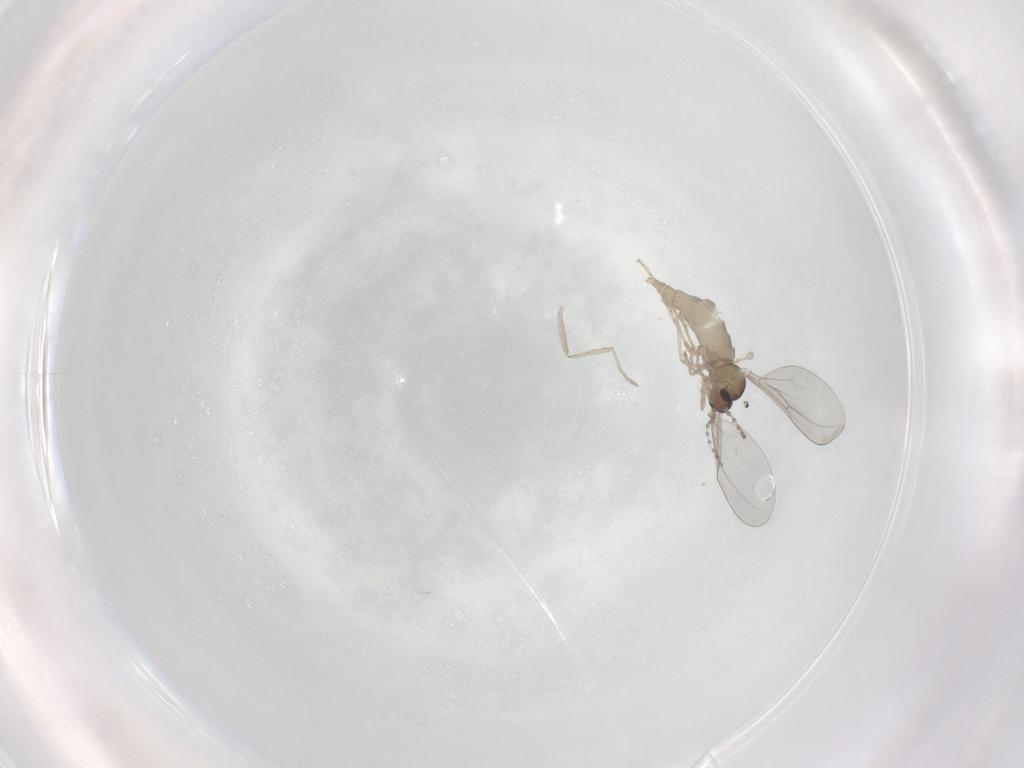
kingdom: Animalia
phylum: Arthropoda
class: Insecta
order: Diptera
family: Cecidomyiidae
